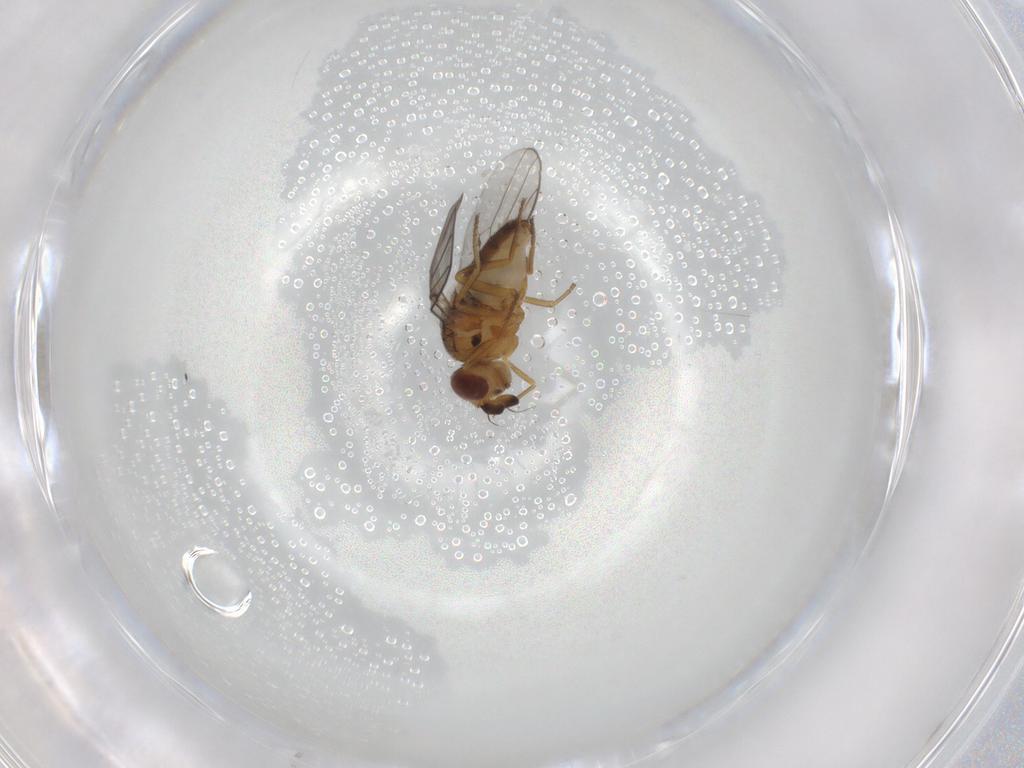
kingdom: Animalia
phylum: Arthropoda
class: Insecta
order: Diptera
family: Chloropidae
